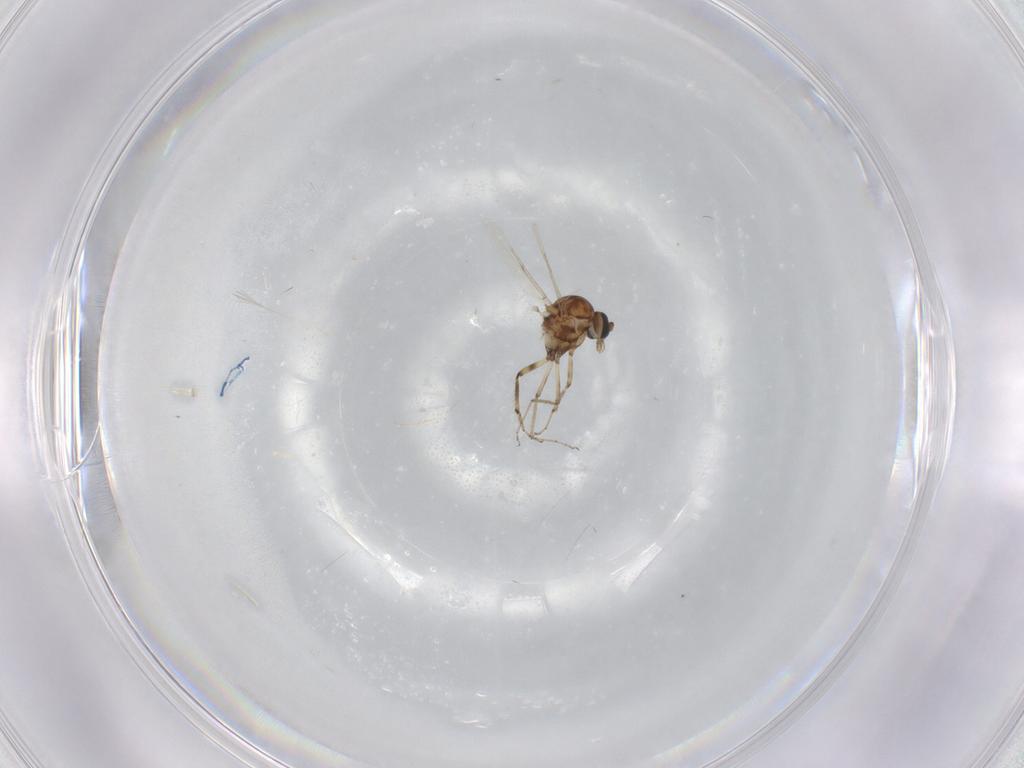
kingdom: Animalia
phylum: Arthropoda
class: Insecta
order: Diptera
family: Ceratopogonidae
